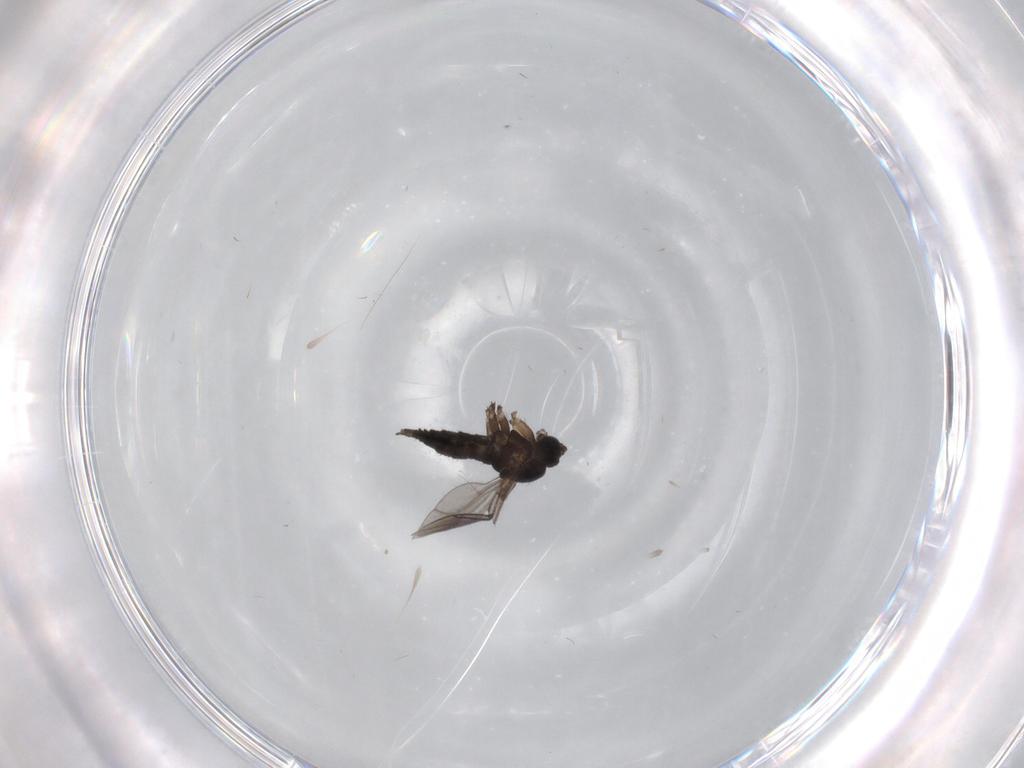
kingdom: Animalia
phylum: Arthropoda
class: Insecta
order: Diptera
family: Sciaridae
